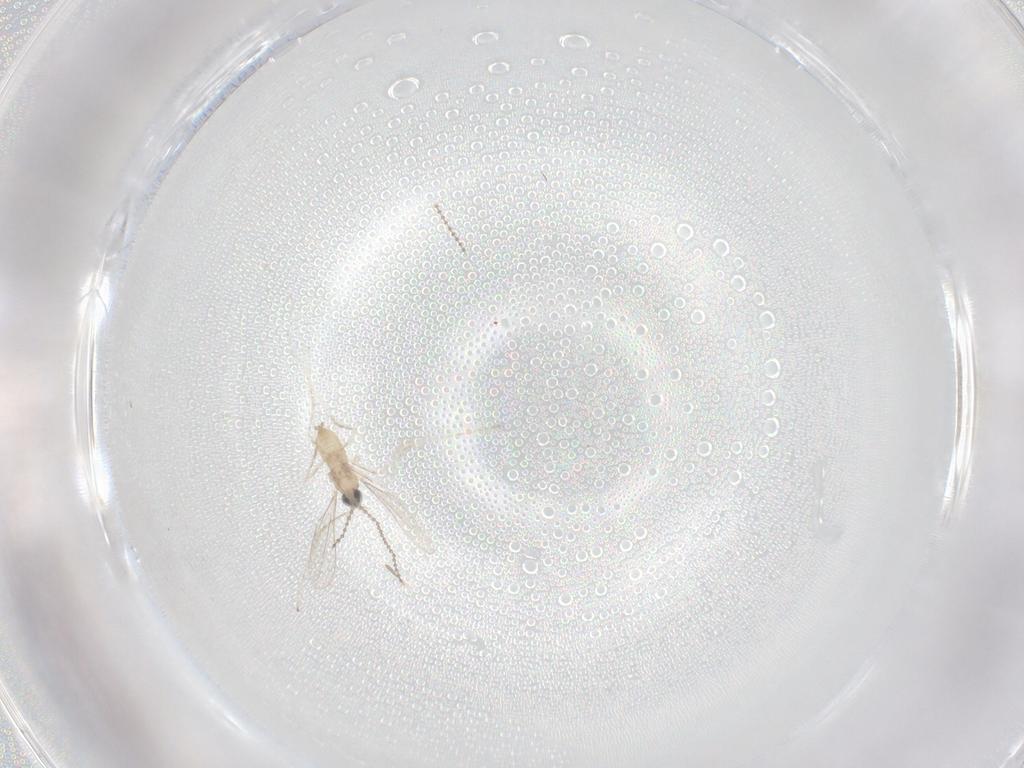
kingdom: Animalia
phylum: Arthropoda
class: Insecta
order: Diptera
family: Cecidomyiidae
